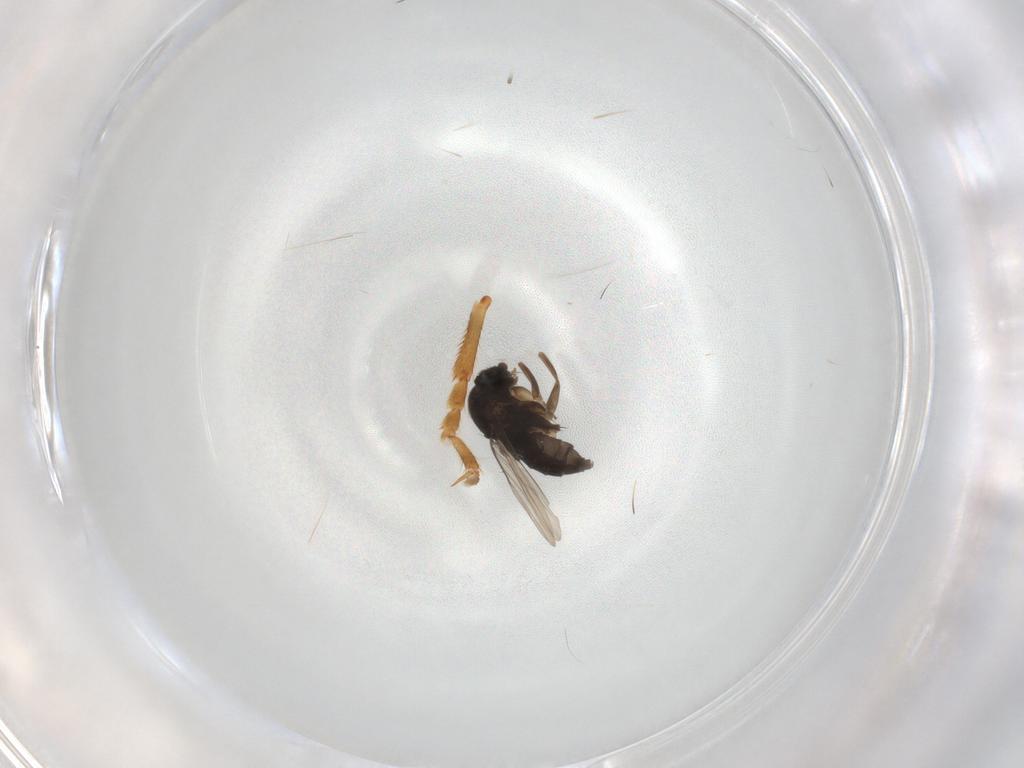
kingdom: Animalia
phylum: Arthropoda
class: Insecta
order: Diptera
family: Phoridae
